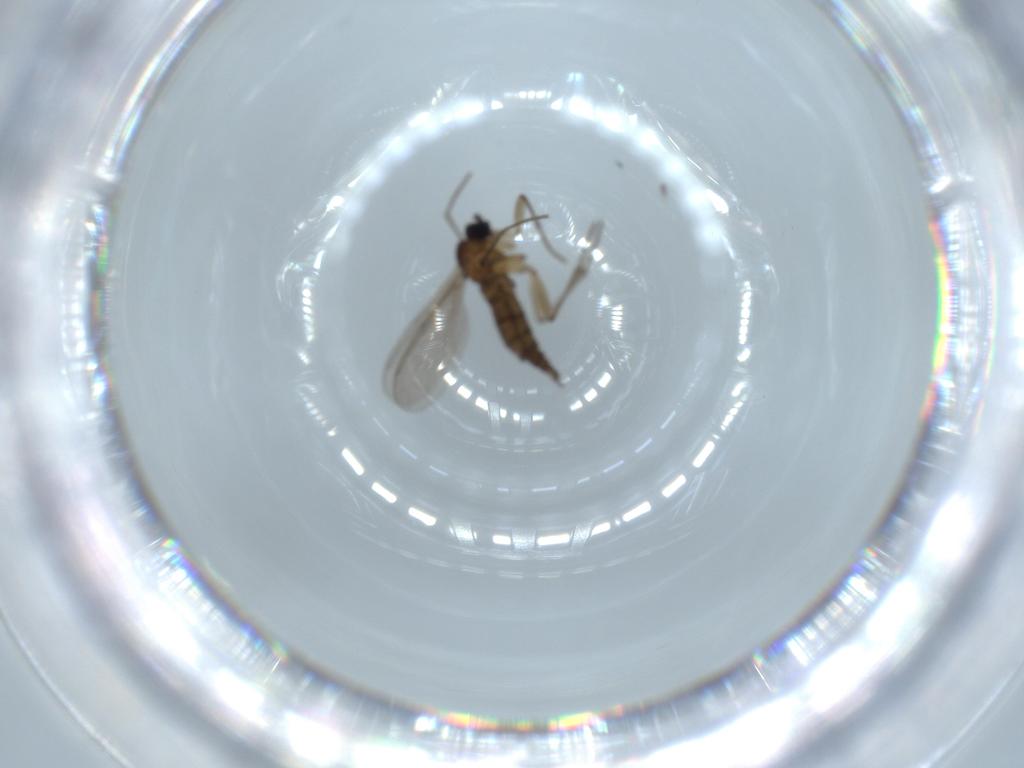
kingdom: Animalia
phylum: Arthropoda
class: Insecta
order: Diptera
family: Sciaridae
